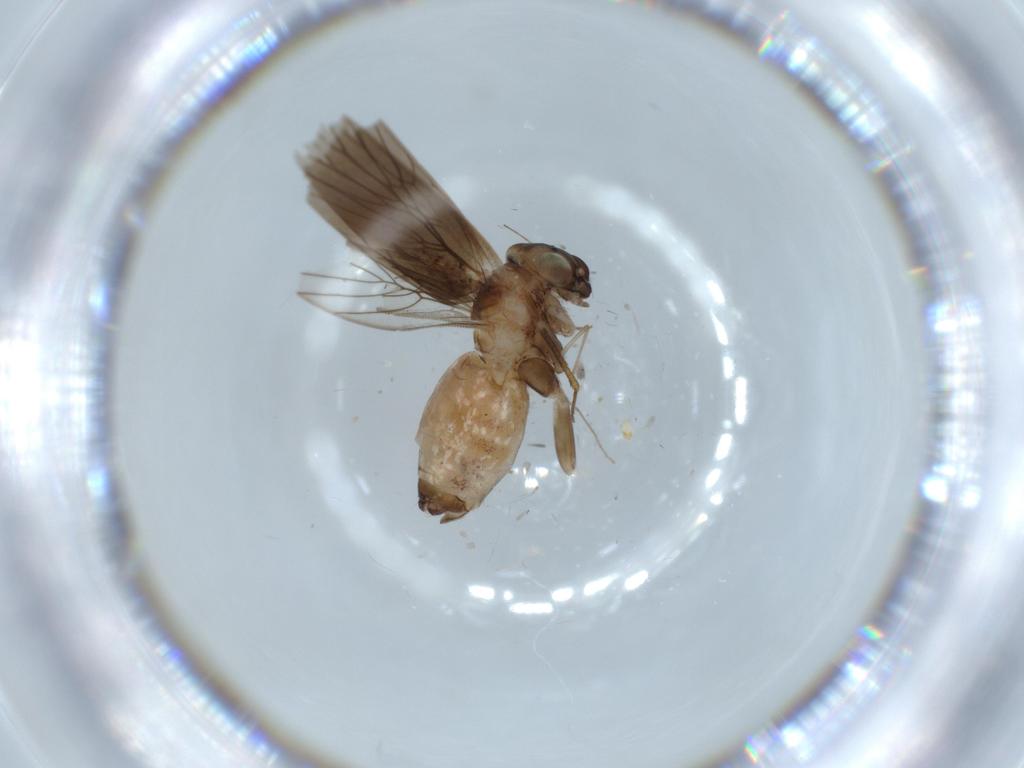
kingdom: Animalia
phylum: Arthropoda
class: Insecta
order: Psocodea
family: Lepidopsocidae
